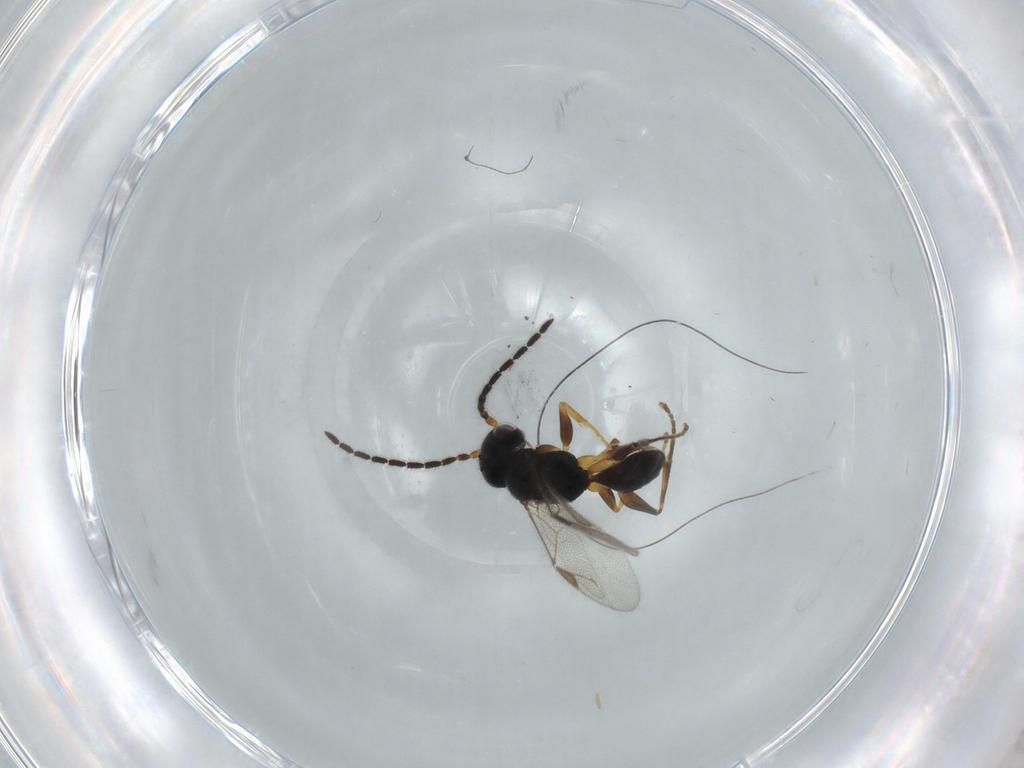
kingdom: Animalia
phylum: Arthropoda
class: Insecta
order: Hymenoptera
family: Dryinidae
